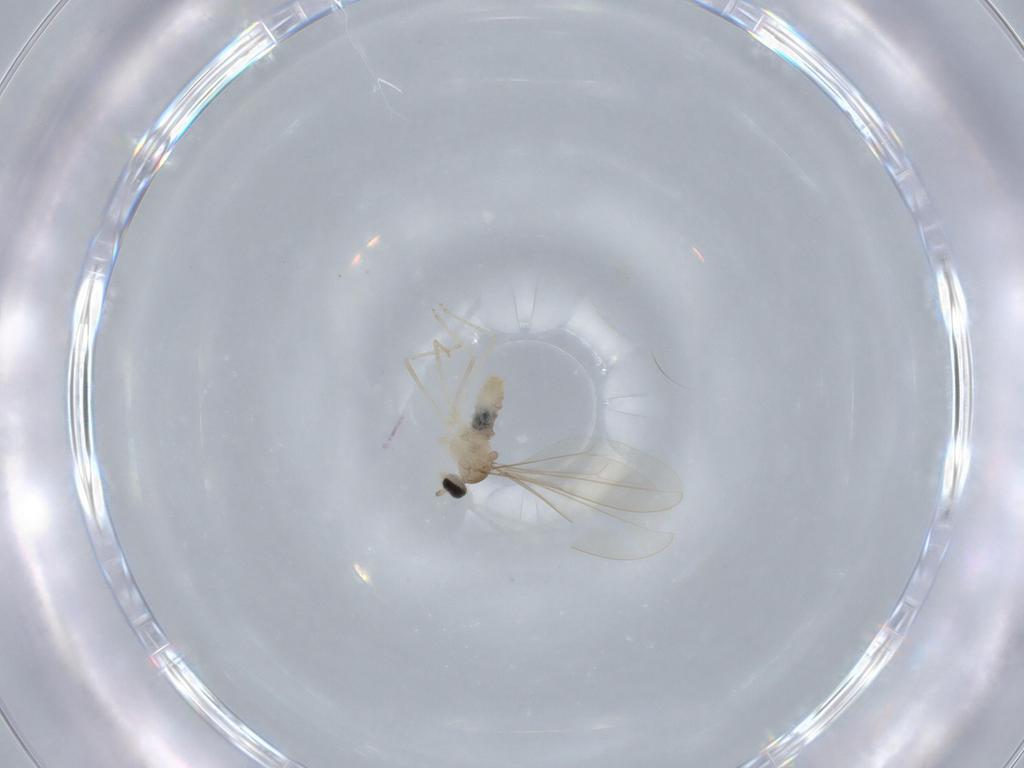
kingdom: Animalia
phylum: Arthropoda
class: Insecta
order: Diptera
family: Cecidomyiidae
